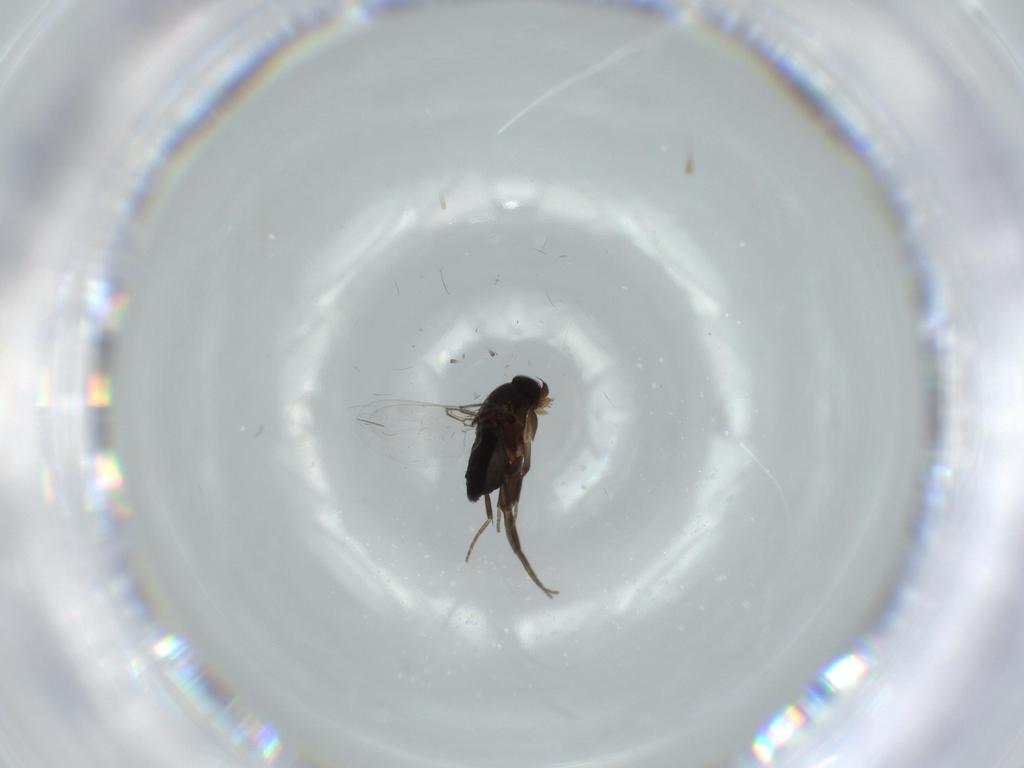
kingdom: Animalia
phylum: Arthropoda
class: Insecta
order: Diptera
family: Phoridae
